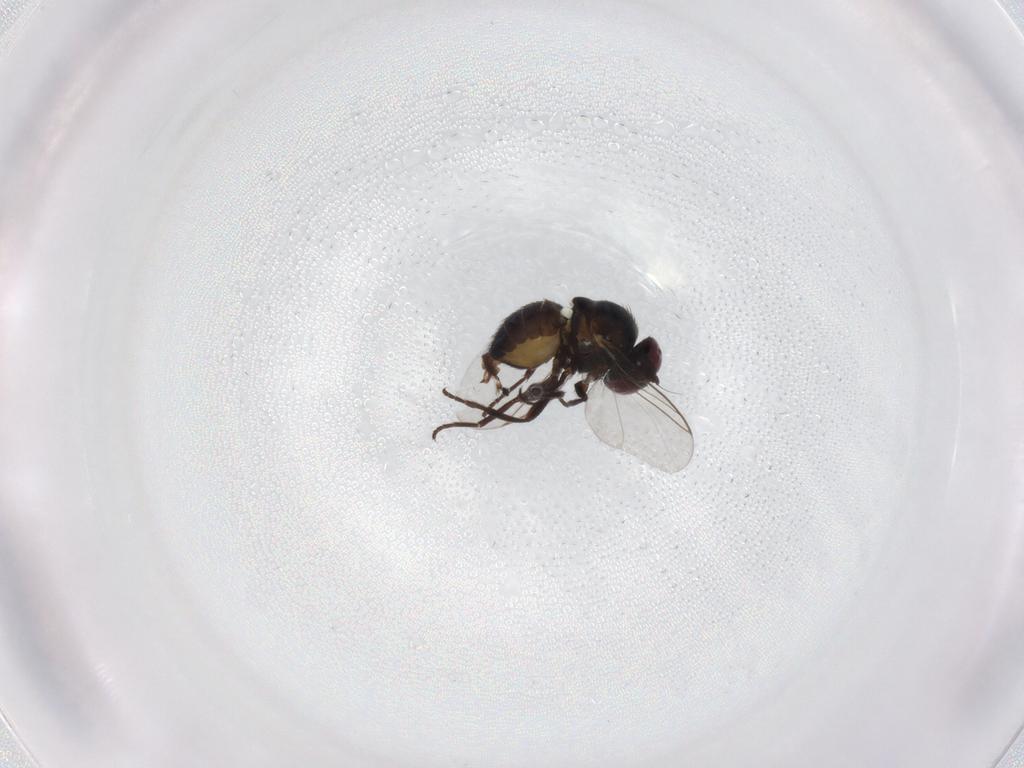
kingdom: Animalia
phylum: Arthropoda
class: Insecta
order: Diptera
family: Agromyzidae
